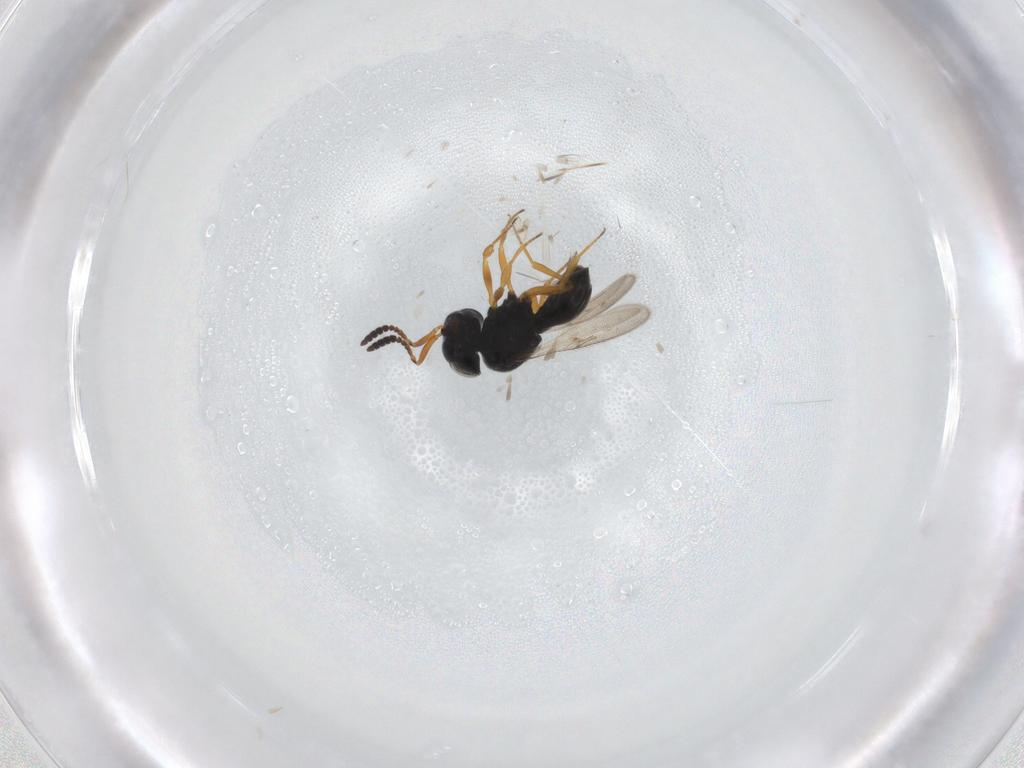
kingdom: Animalia
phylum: Arthropoda
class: Insecta
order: Hymenoptera
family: Scelionidae
